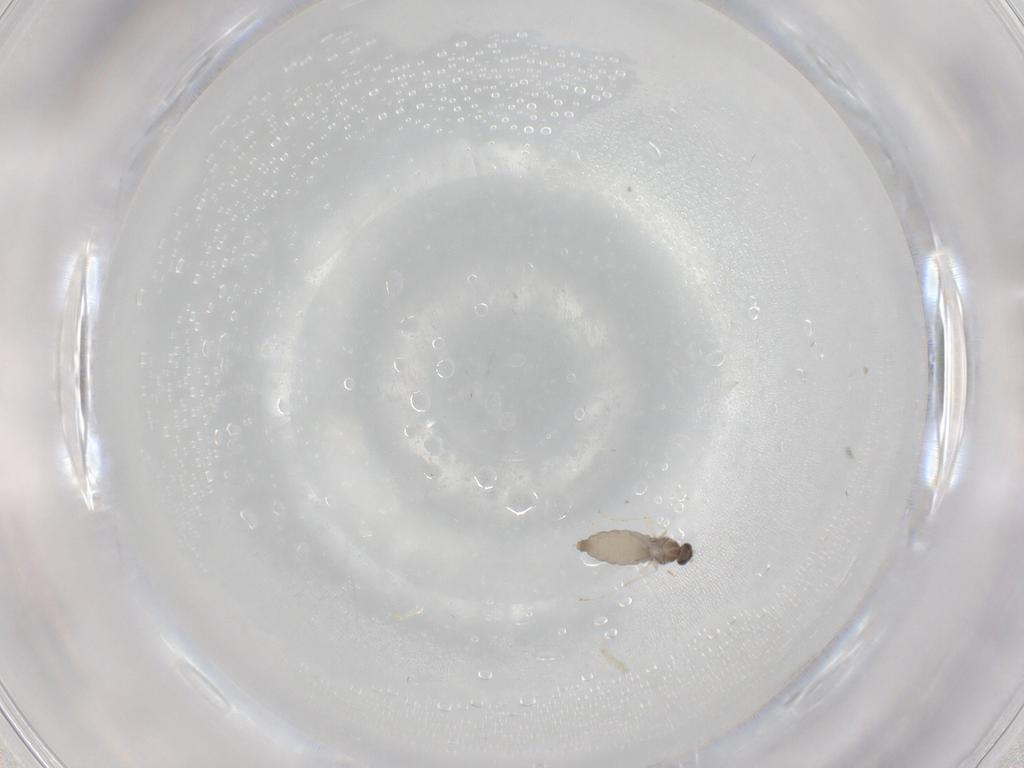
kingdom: Animalia
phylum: Arthropoda
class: Insecta
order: Diptera
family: Cecidomyiidae
